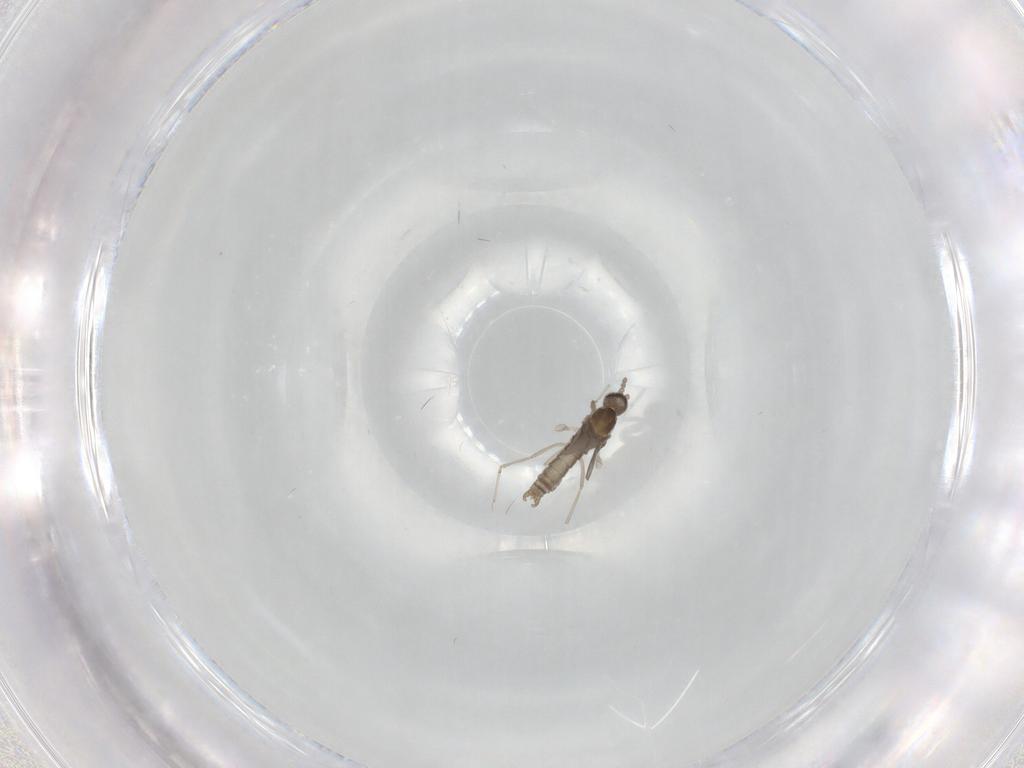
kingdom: Animalia
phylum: Arthropoda
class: Insecta
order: Diptera
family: Cecidomyiidae
